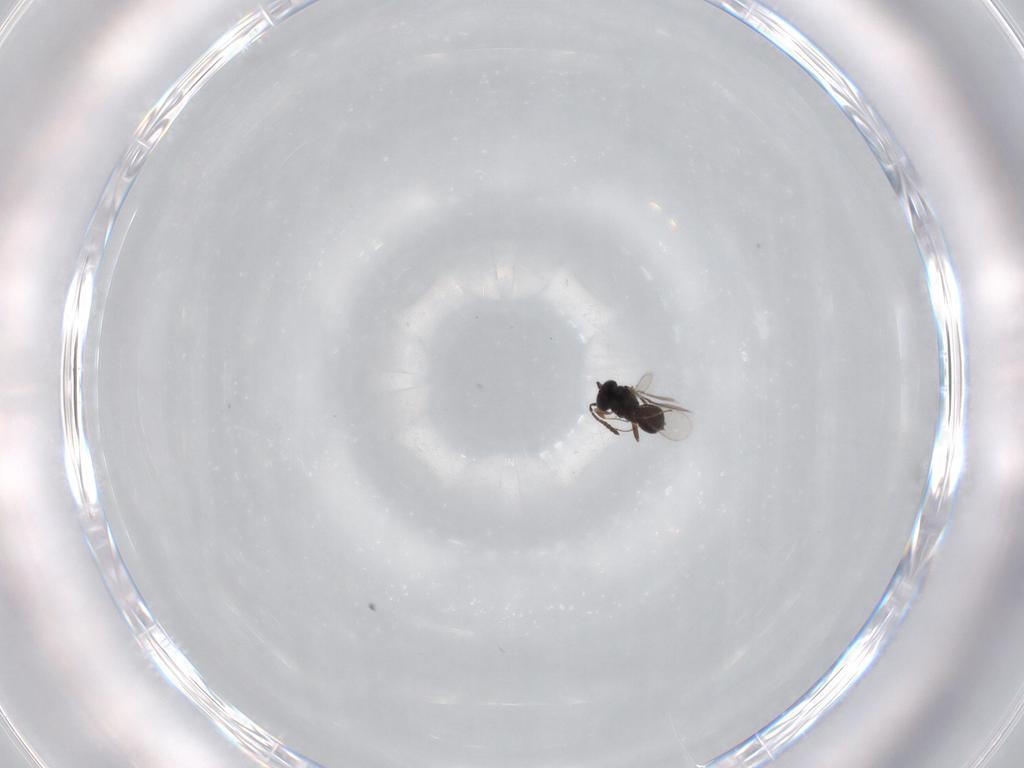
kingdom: Animalia
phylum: Arthropoda
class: Insecta
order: Hymenoptera
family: Scelionidae
